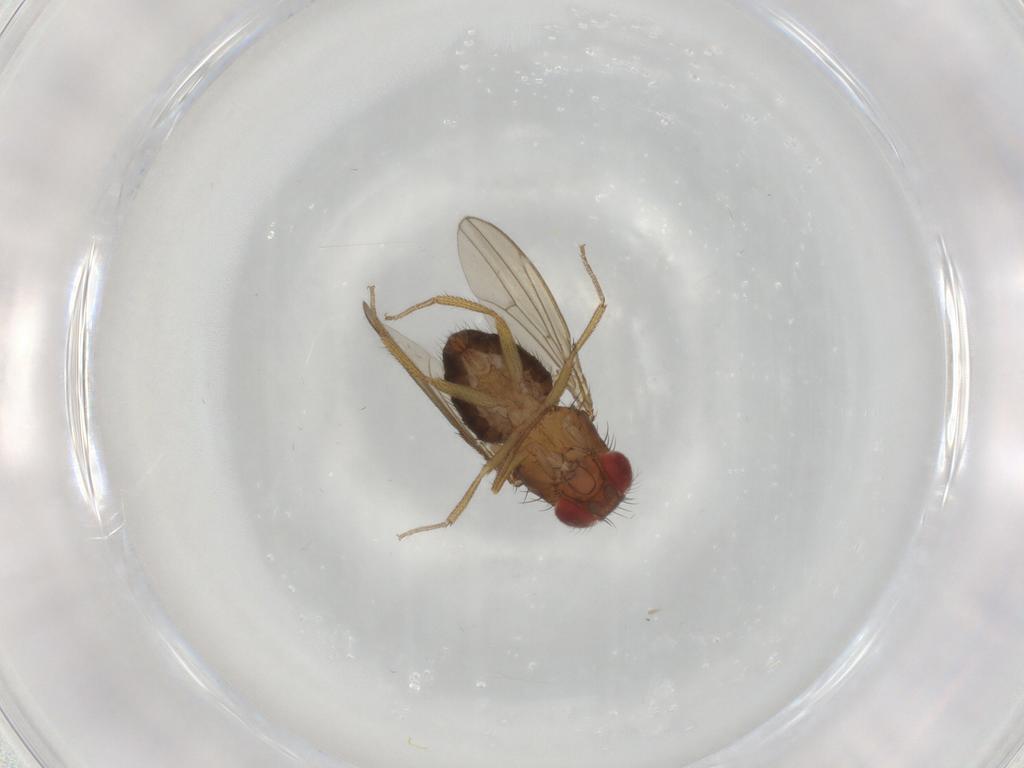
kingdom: Animalia
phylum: Arthropoda
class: Insecta
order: Diptera
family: Drosophilidae
